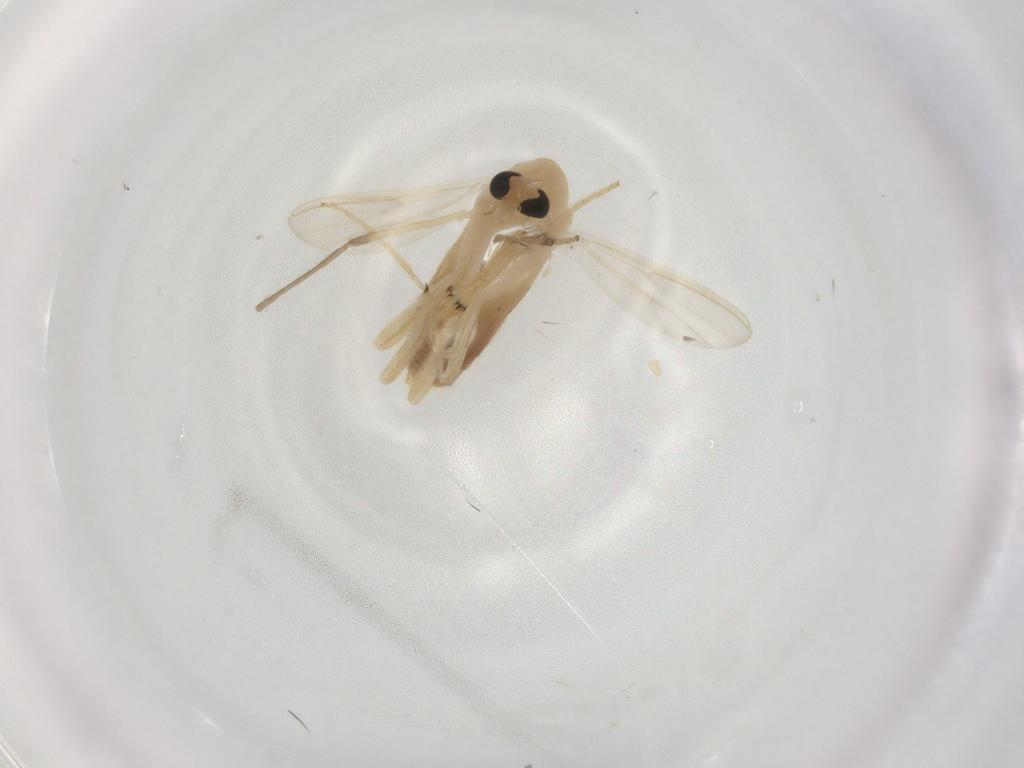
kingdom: Animalia
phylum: Arthropoda
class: Insecta
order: Diptera
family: Chironomidae
